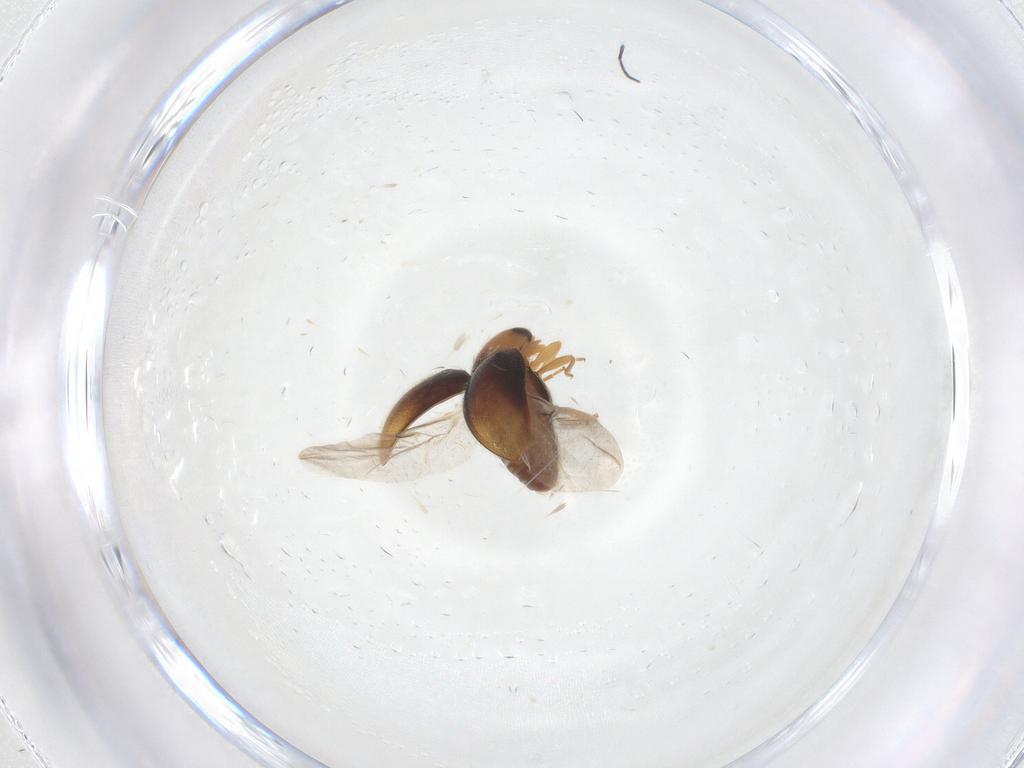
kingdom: Animalia
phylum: Arthropoda
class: Insecta
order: Coleoptera
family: Coccinellidae
